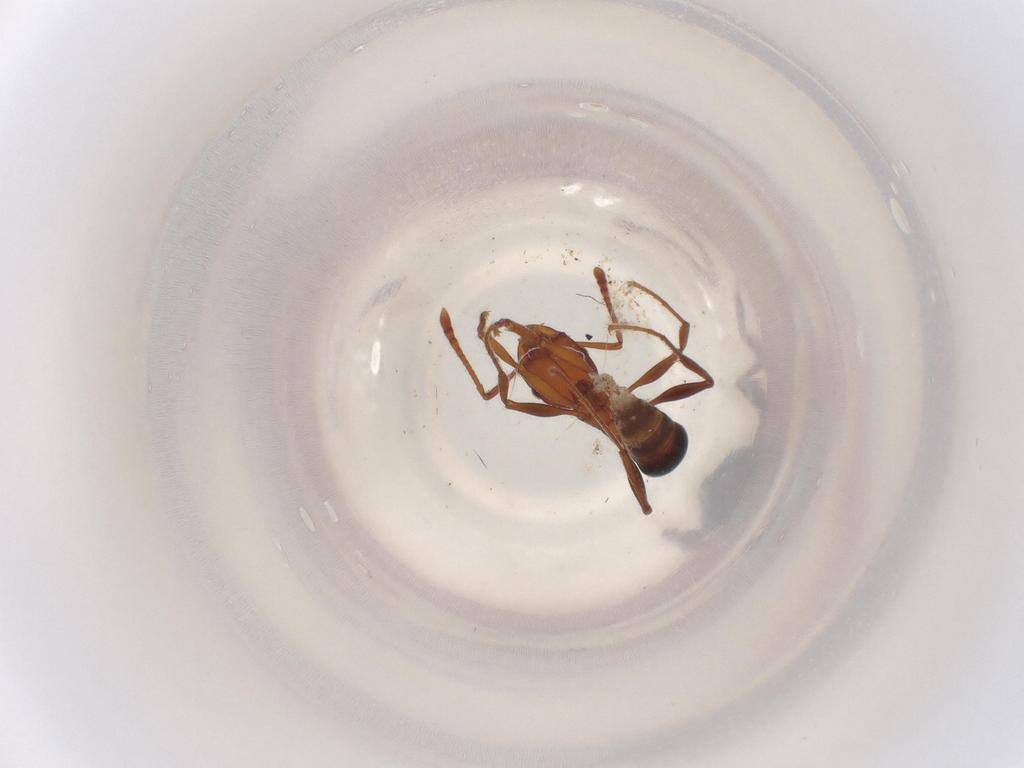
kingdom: Animalia
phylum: Arthropoda
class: Insecta
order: Hymenoptera
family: Formicidae
